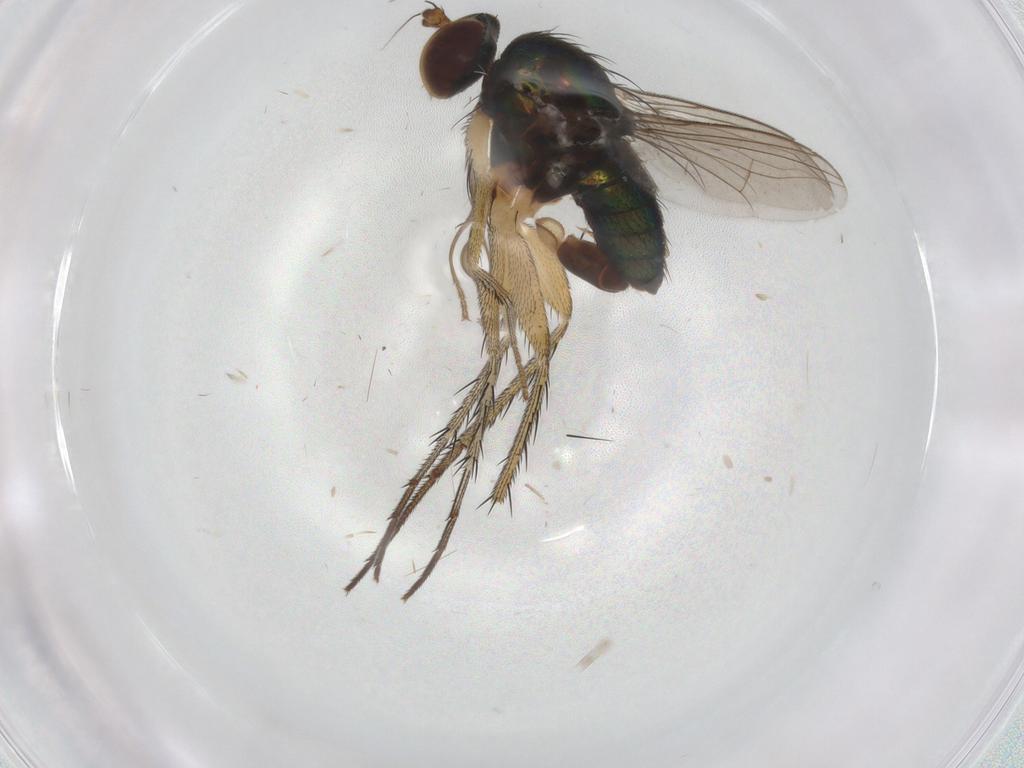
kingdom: Animalia
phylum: Arthropoda
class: Insecta
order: Diptera
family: Dolichopodidae
